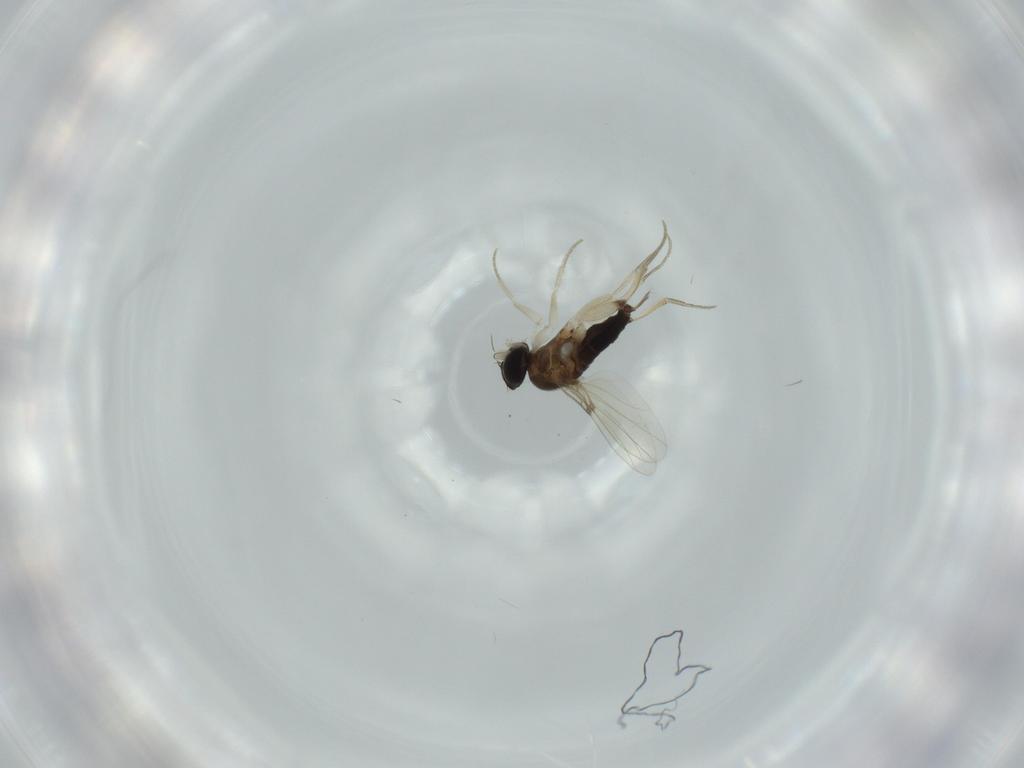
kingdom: Animalia
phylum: Arthropoda
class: Insecta
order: Diptera
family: Phoridae
